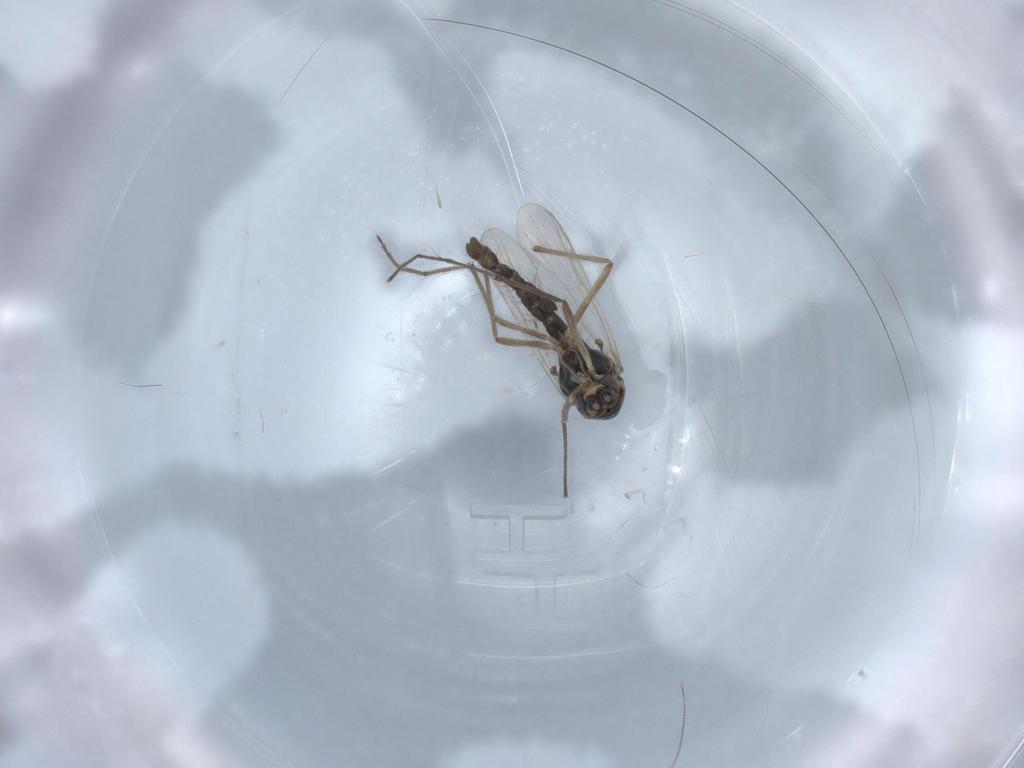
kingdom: Animalia
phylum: Arthropoda
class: Insecta
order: Diptera
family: Chironomidae
